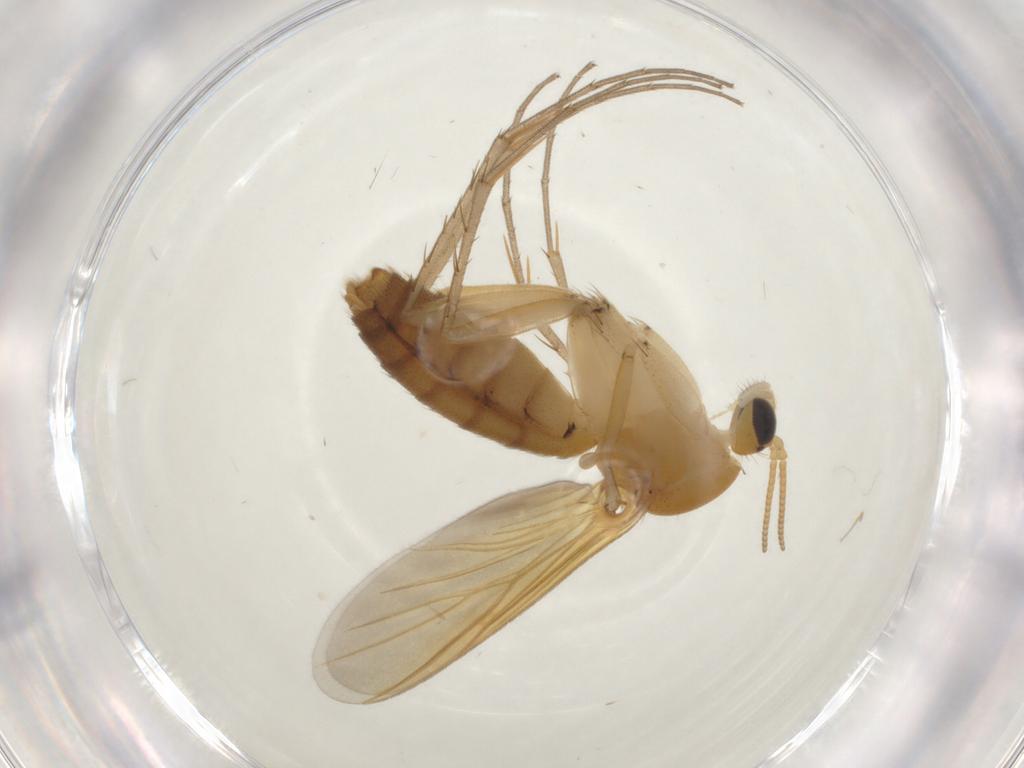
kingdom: Animalia
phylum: Arthropoda
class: Insecta
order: Diptera
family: Mycetophilidae
